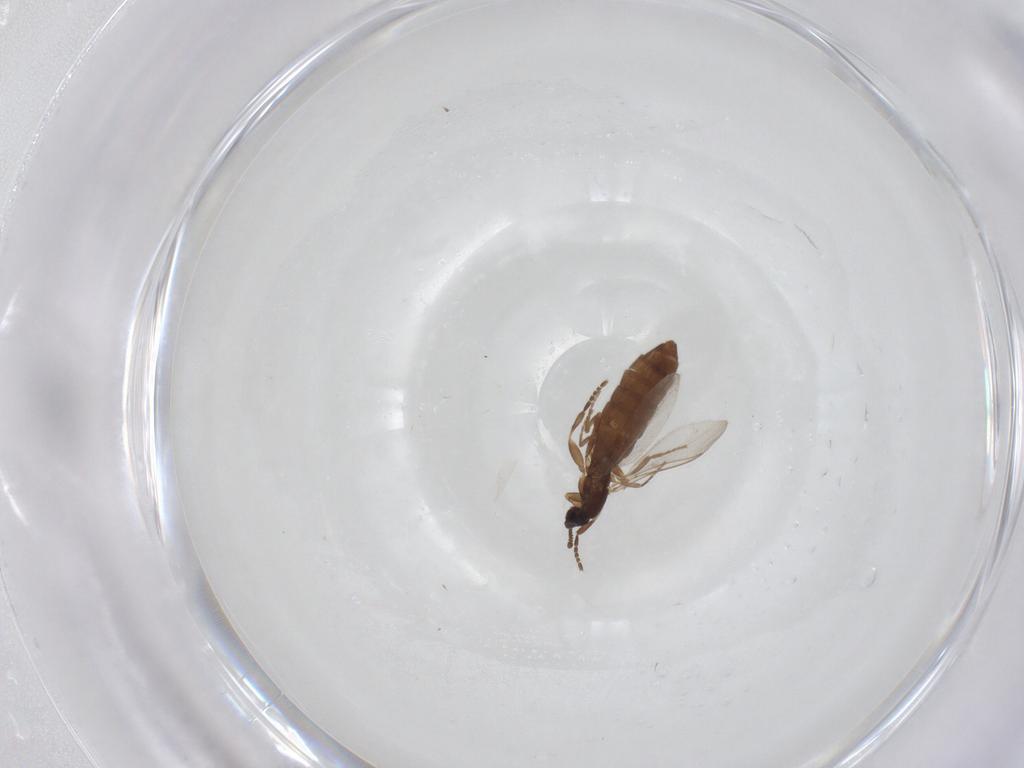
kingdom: Animalia
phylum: Arthropoda
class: Insecta
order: Diptera
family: Scatopsidae
